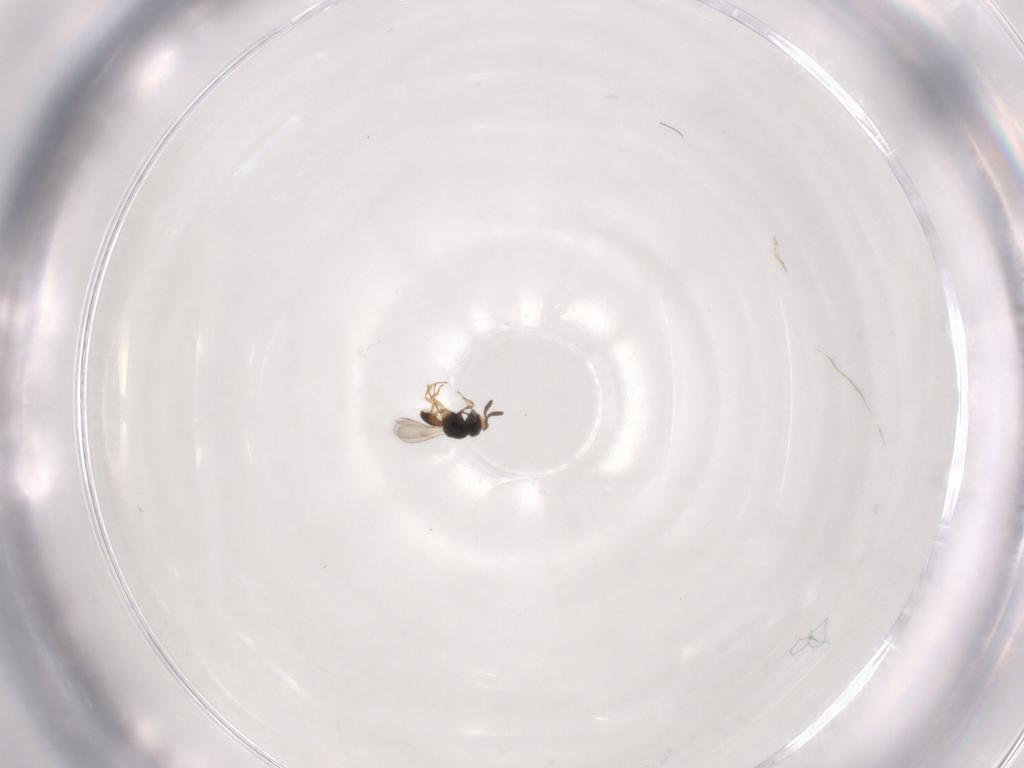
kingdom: Animalia
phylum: Arthropoda
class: Insecta
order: Hymenoptera
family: Scelionidae
